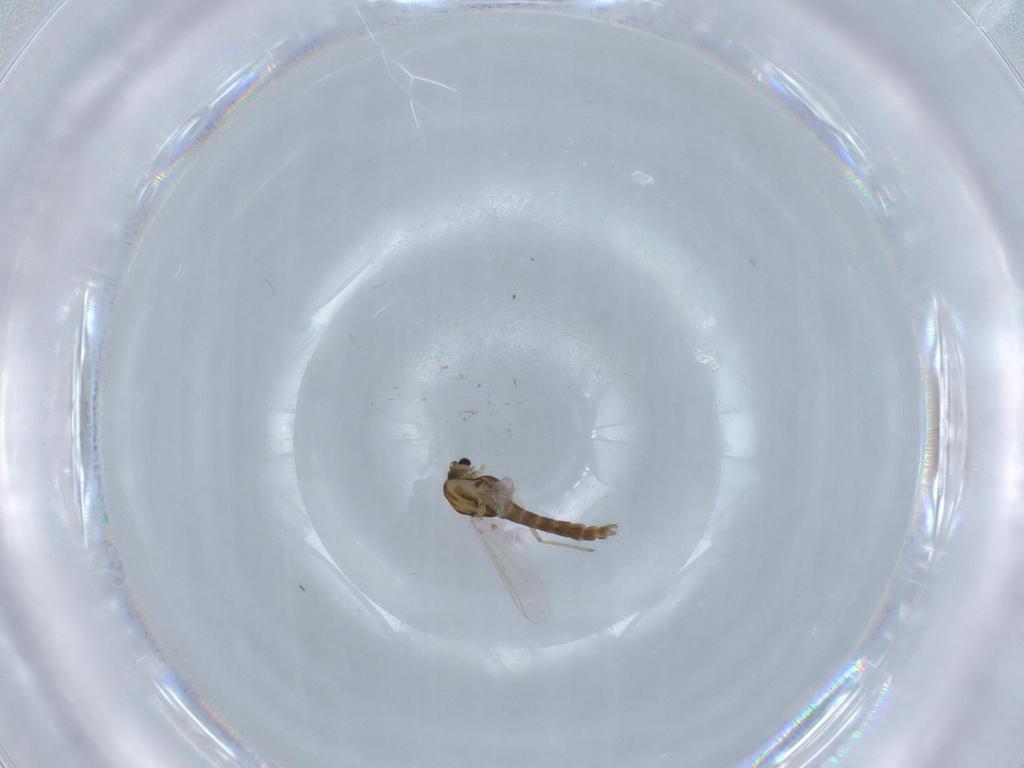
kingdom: Animalia
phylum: Arthropoda
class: Insecta
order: Diptera
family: Chironomidae
